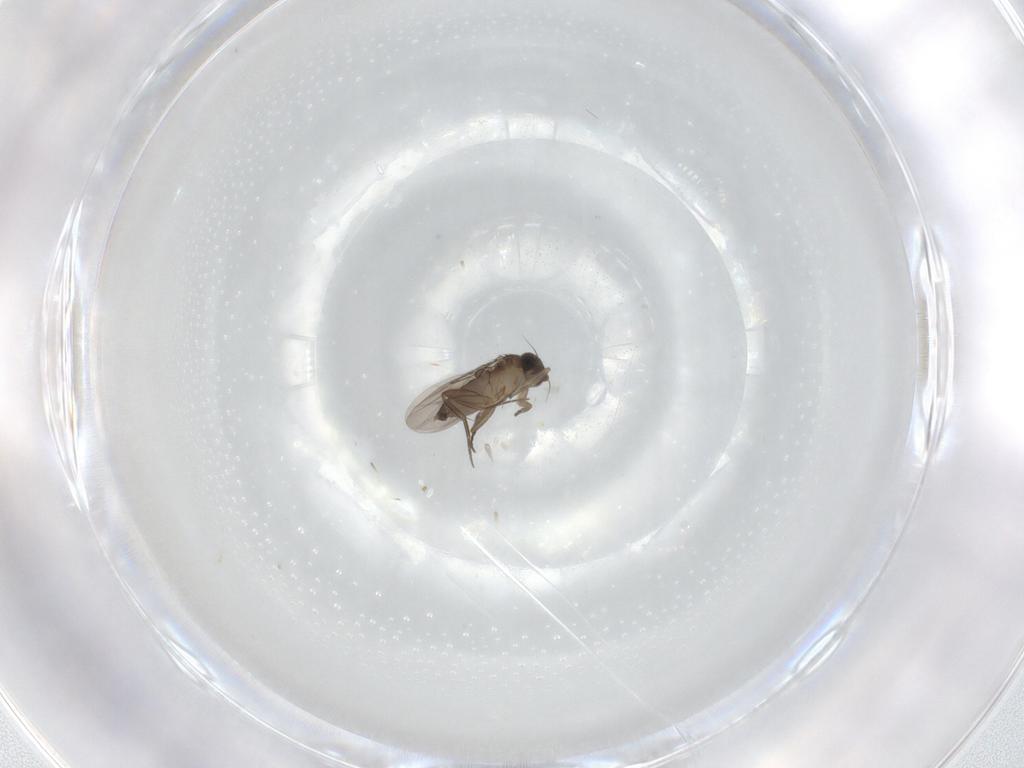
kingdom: Animalia
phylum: Arthropoda
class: Insecta
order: Diptera
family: Phoridae
